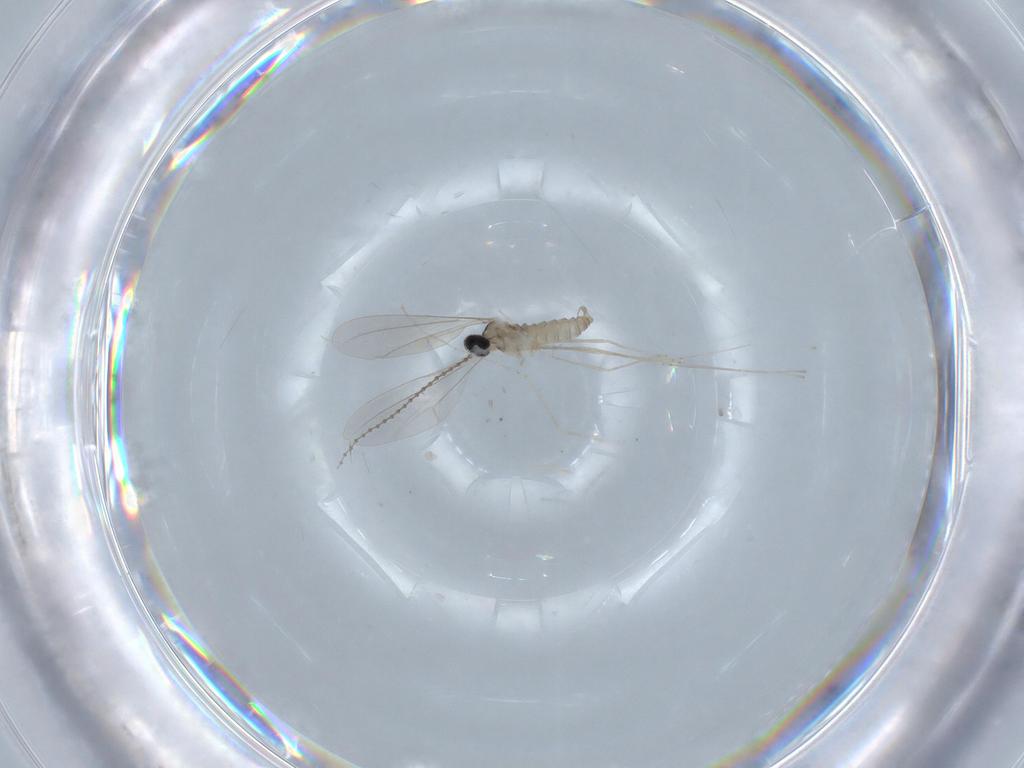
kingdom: Animalia
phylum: Arthropoda
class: Insecta
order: Diptera
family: Cecidomyiidae
